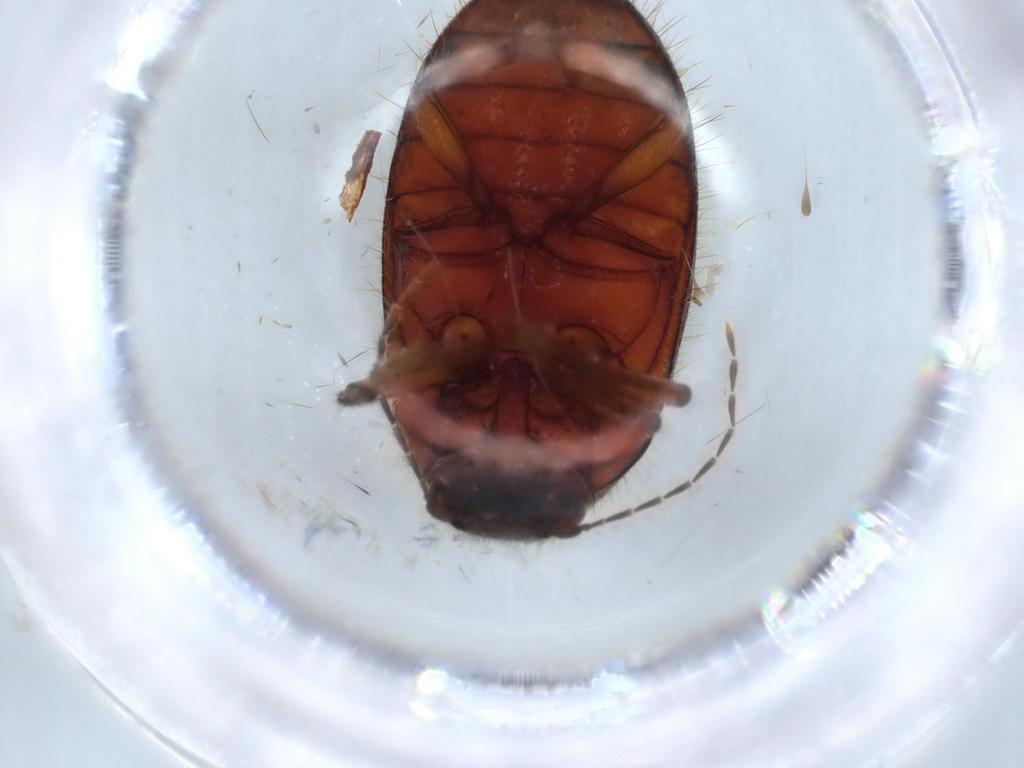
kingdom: Animalia
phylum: Arthropoda
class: Insecta
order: Coleoptera
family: Artematopodidae
